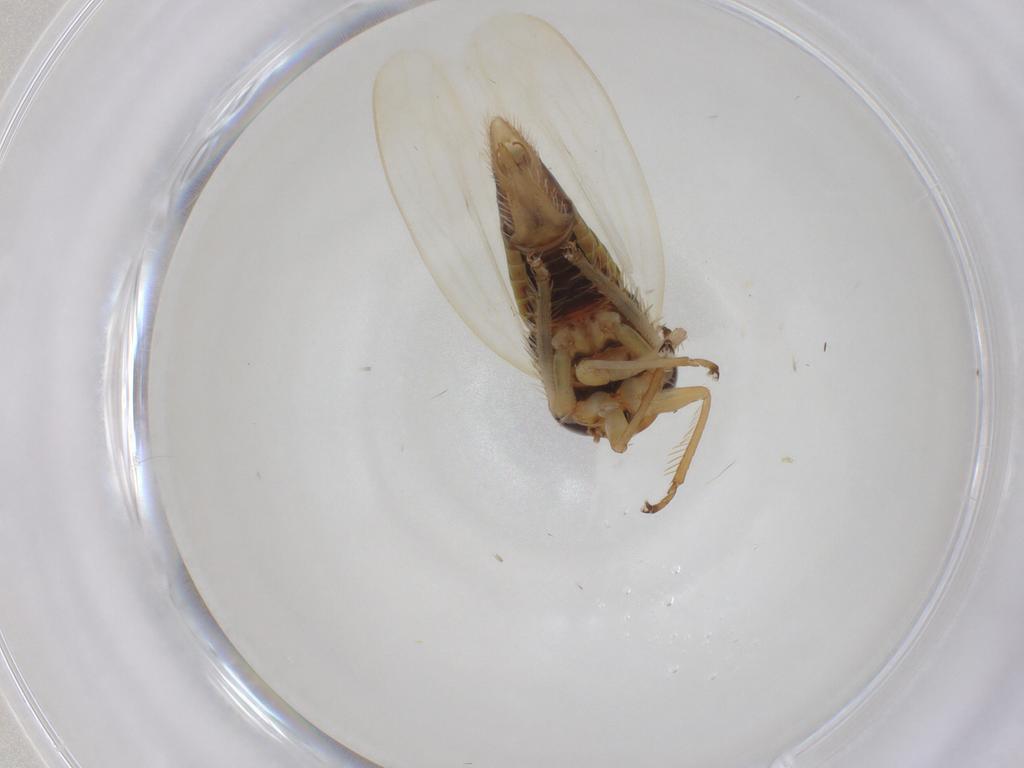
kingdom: Animalia
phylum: Arthropoda
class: Insecta
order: Hemiptera
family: Cicadellidae
